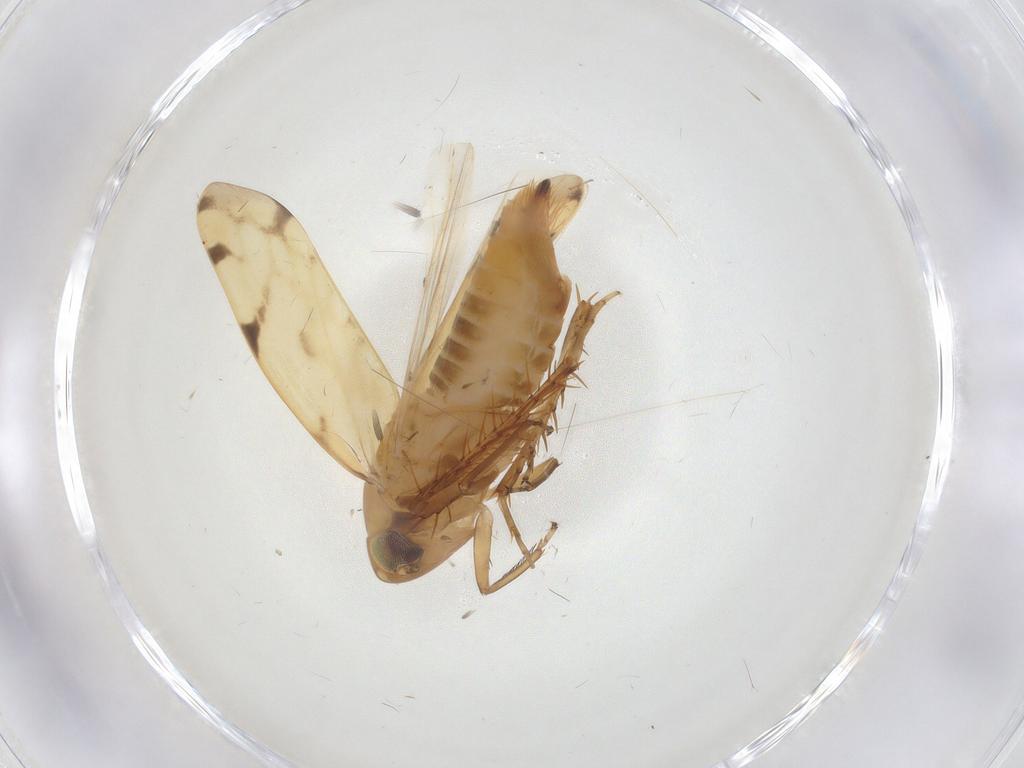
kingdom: Animalia
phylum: Arthropoda
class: Insecta
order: Hemiptera
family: Cicadellidae
